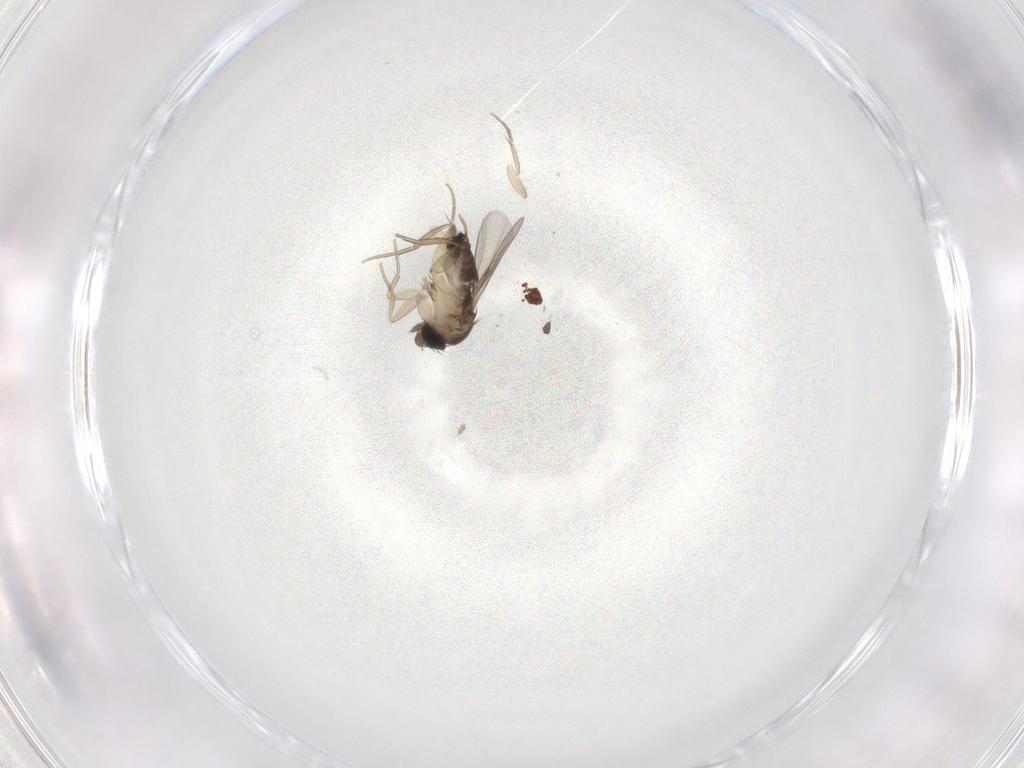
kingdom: Animalia
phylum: Arthropoda
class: Insecta
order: Diptera
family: Phoridae
